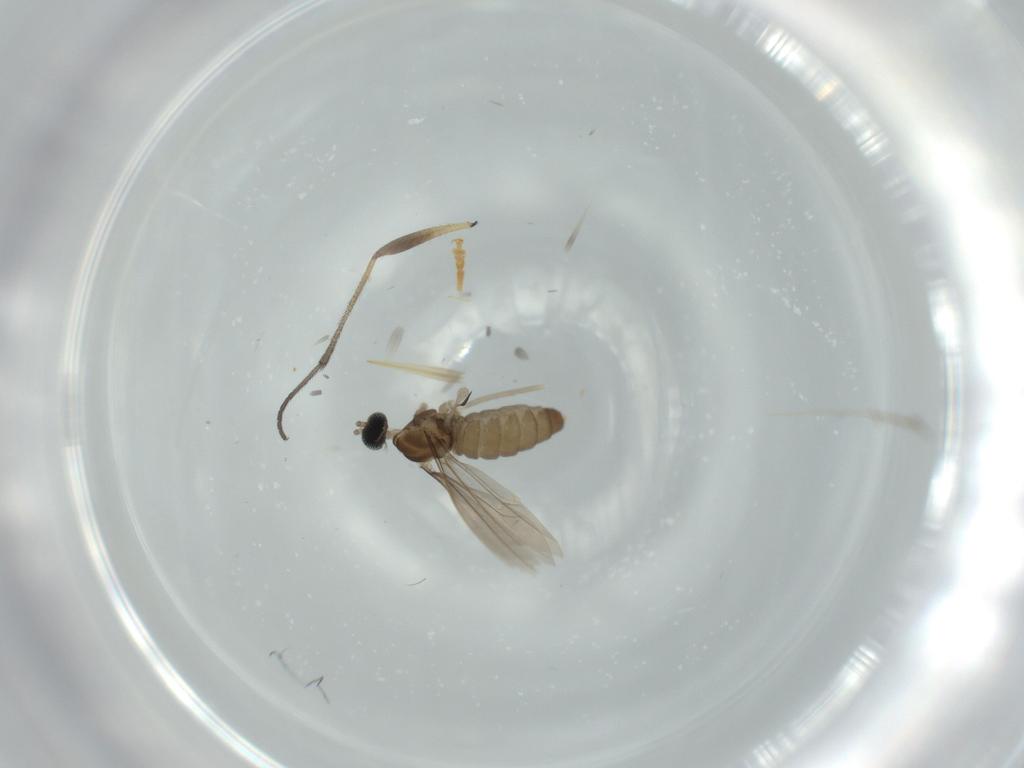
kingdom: Animalia
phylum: Arthropoda
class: Insecta
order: Diptera
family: Cecidomyiidae
